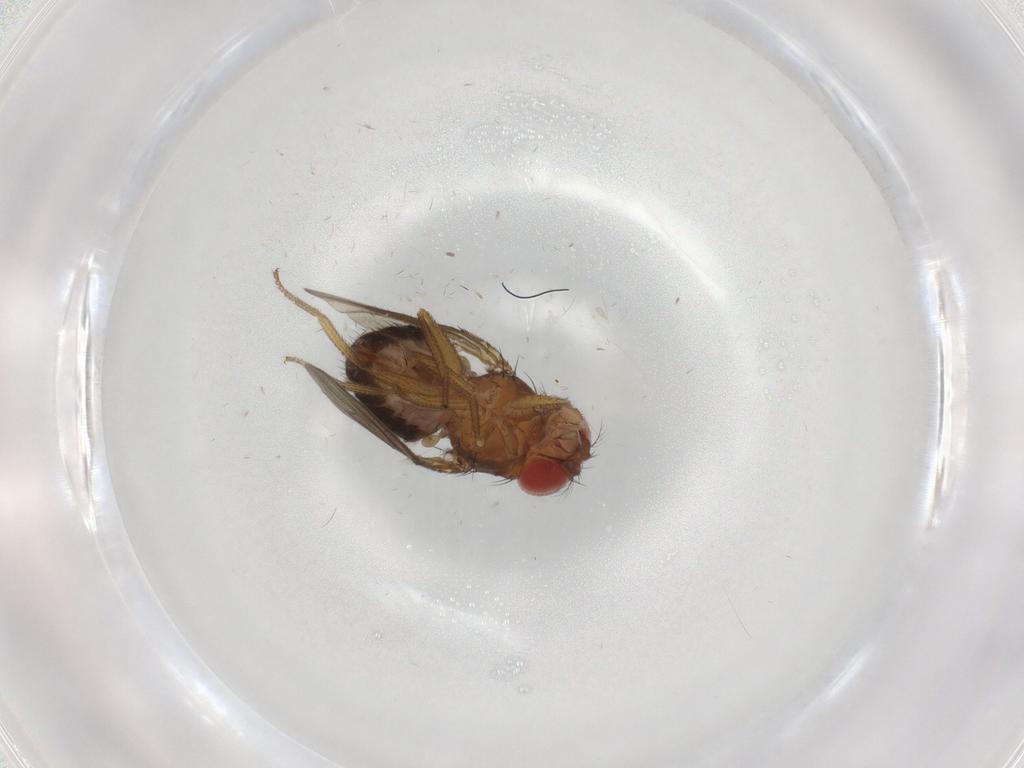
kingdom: Animalia
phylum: Arthropoda
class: Insecta
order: Diptera
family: Drosophilidae
